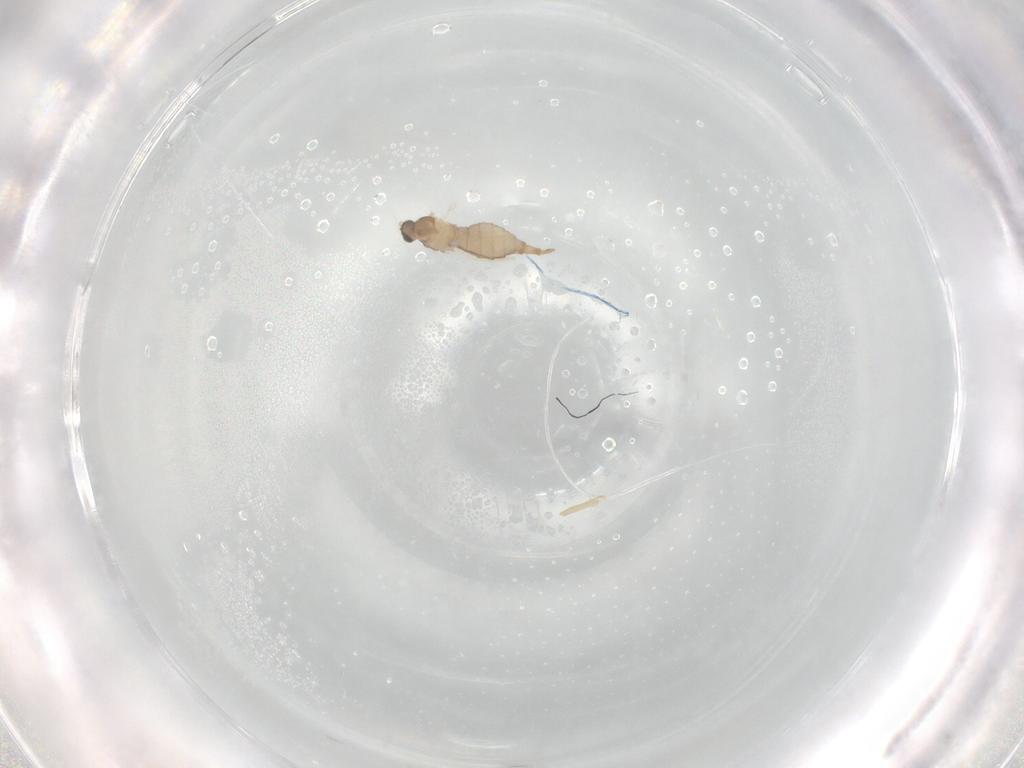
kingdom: Animalia
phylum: Arthropoda
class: Insecta
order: Diptera
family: Cecidomyiidae
